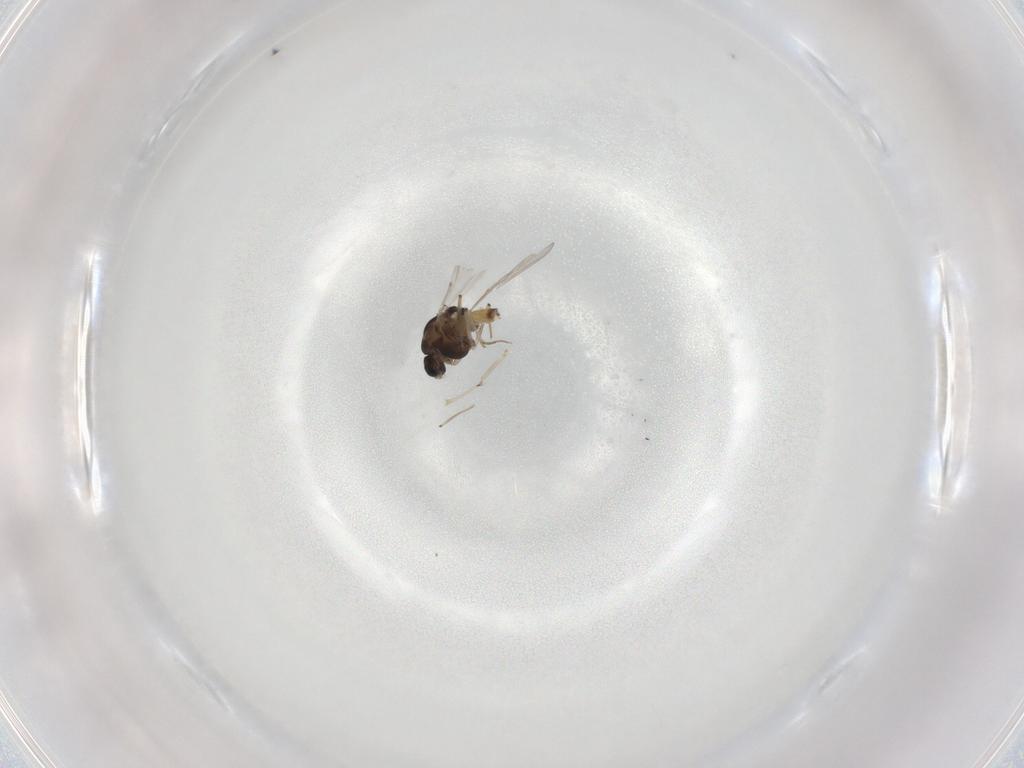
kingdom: Animalia
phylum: Arthropoda
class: Insecta
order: Diptera
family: Chironomidae
